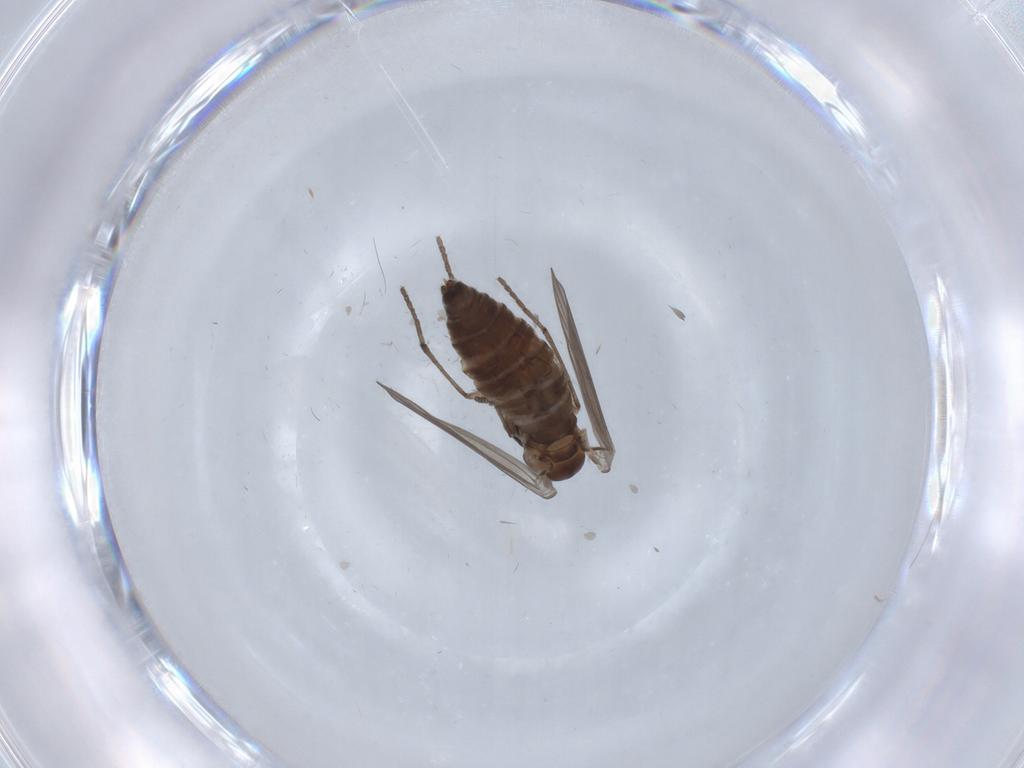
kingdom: Animalia
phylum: Arthropoda
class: Insecta
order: Diptera
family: Psychodidae
